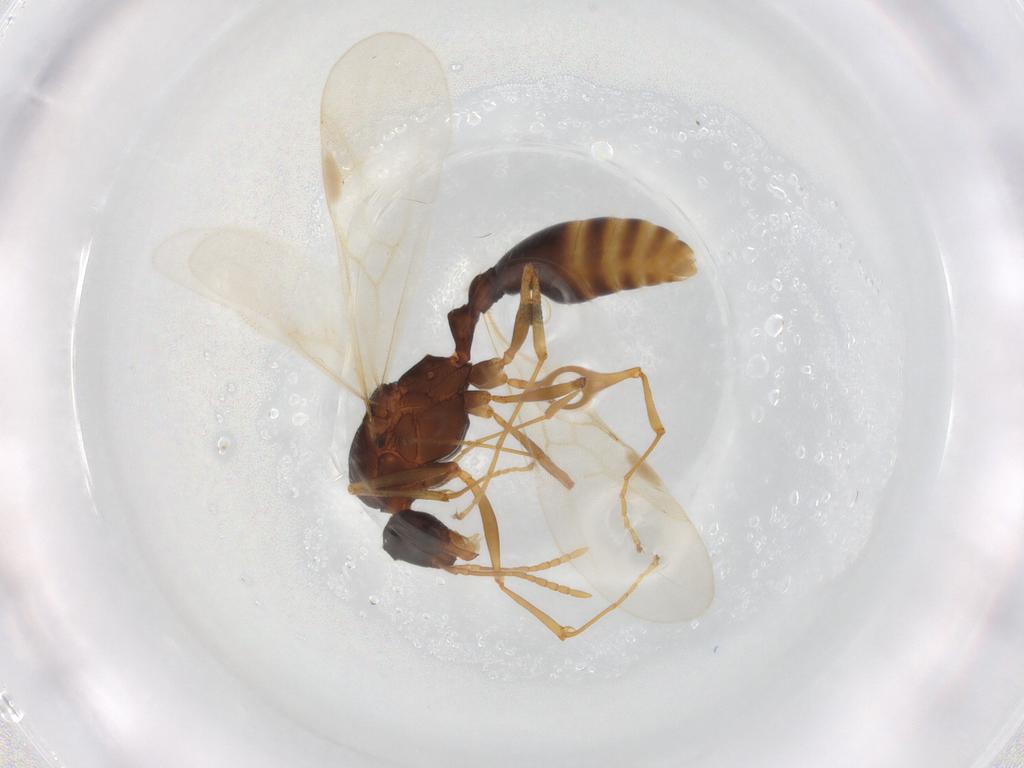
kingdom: Animalia
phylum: Arthropoda
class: Insecta
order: Hymenoptera
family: Formicidae
